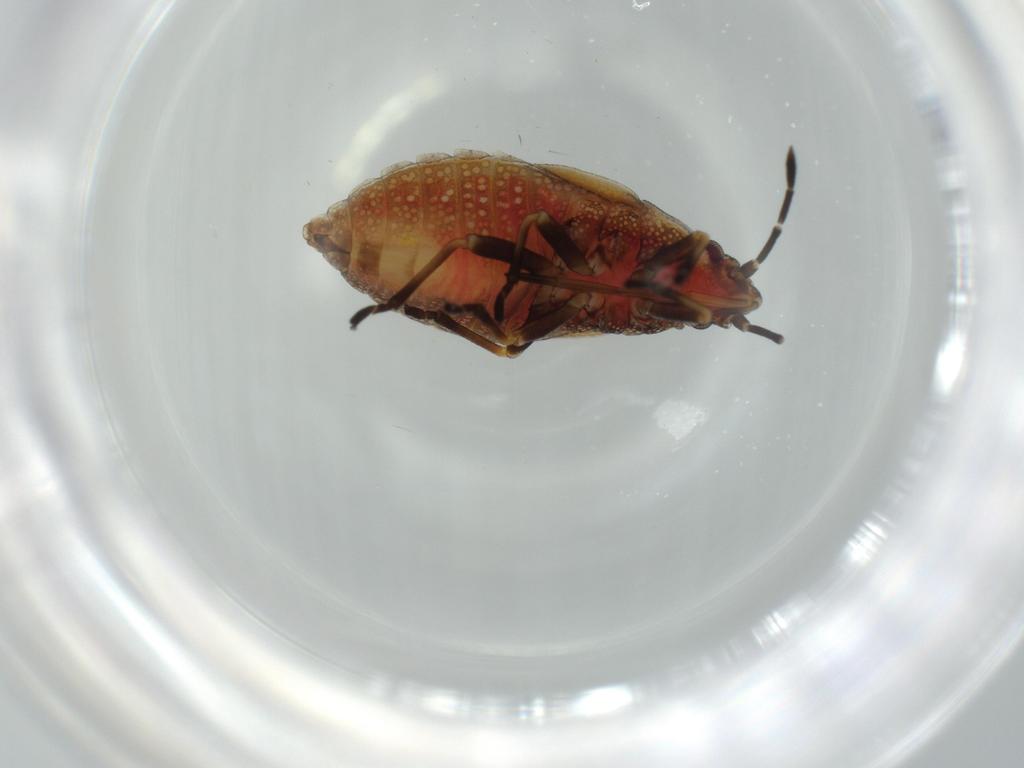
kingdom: Animalia
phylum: Arthropoda
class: Insecta
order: Hemiptera
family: Cymidae
